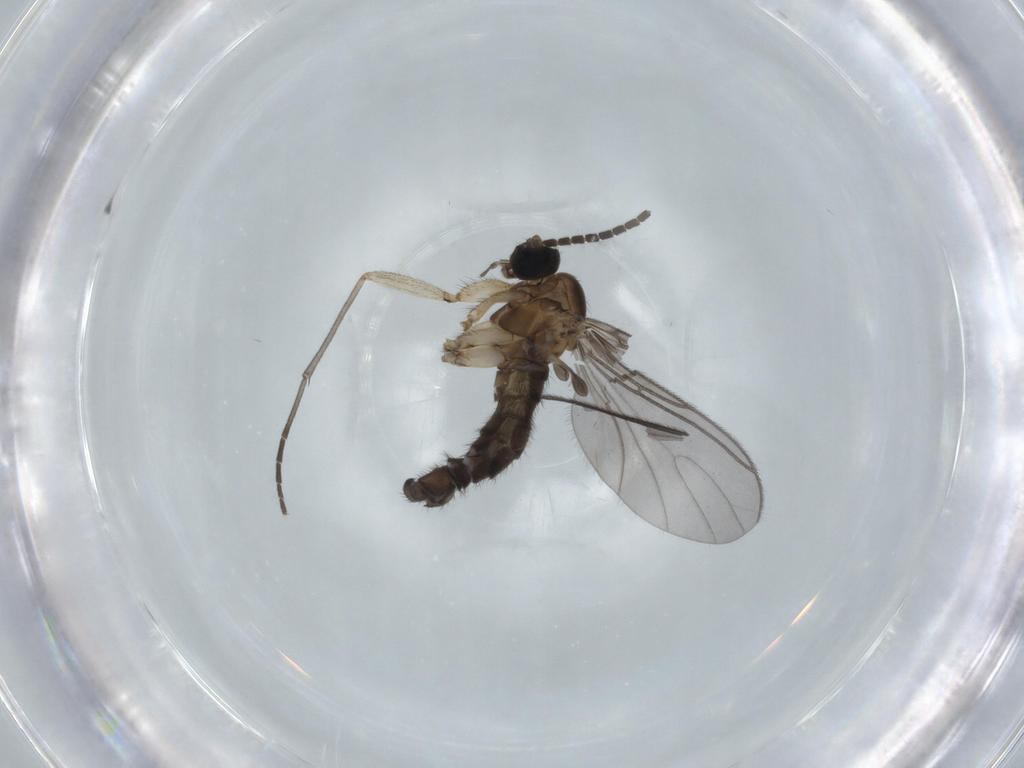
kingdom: Animalia
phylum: Arthropoda
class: Insecta
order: Diptera
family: Sciaridae
